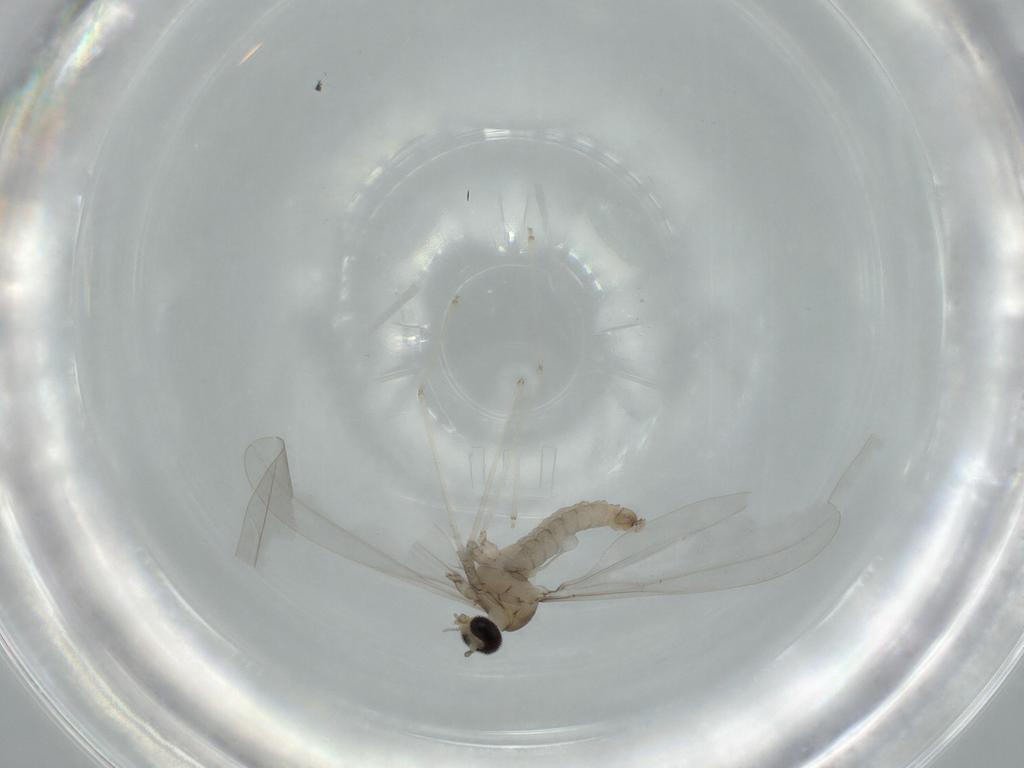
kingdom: Animalia
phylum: Arthropoda
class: Insecta
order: Diptera
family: Cecidomyiidae
